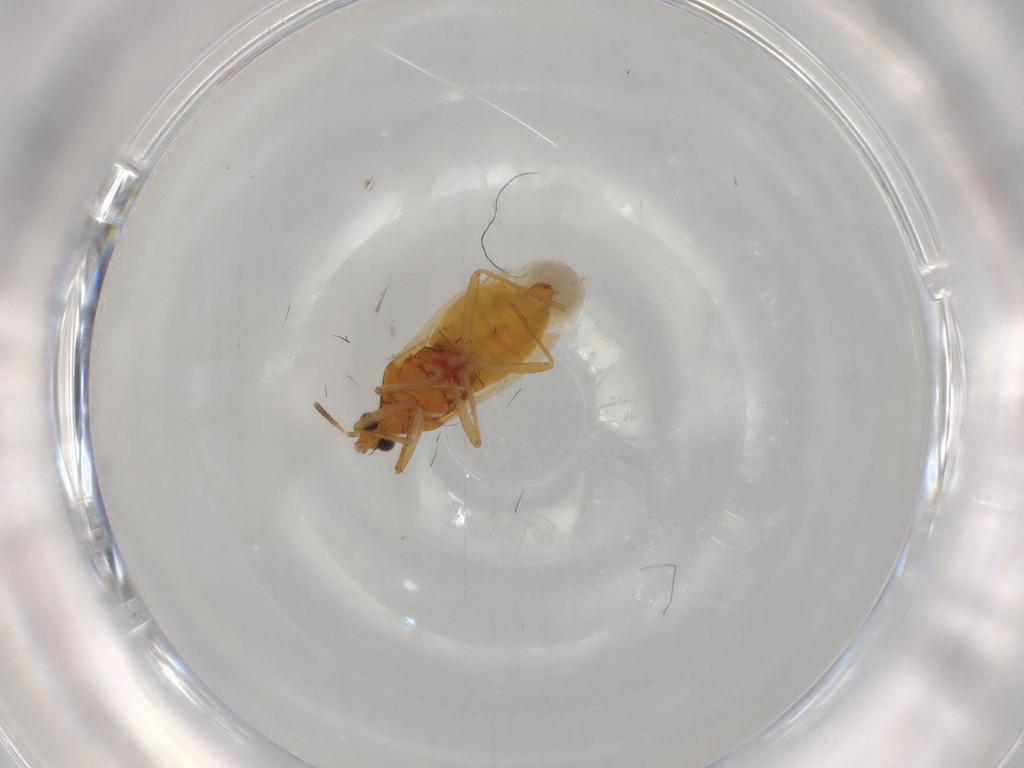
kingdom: Animalia
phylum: Arthropoda
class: Insecta
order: Hemiptera
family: Anthocoridae
